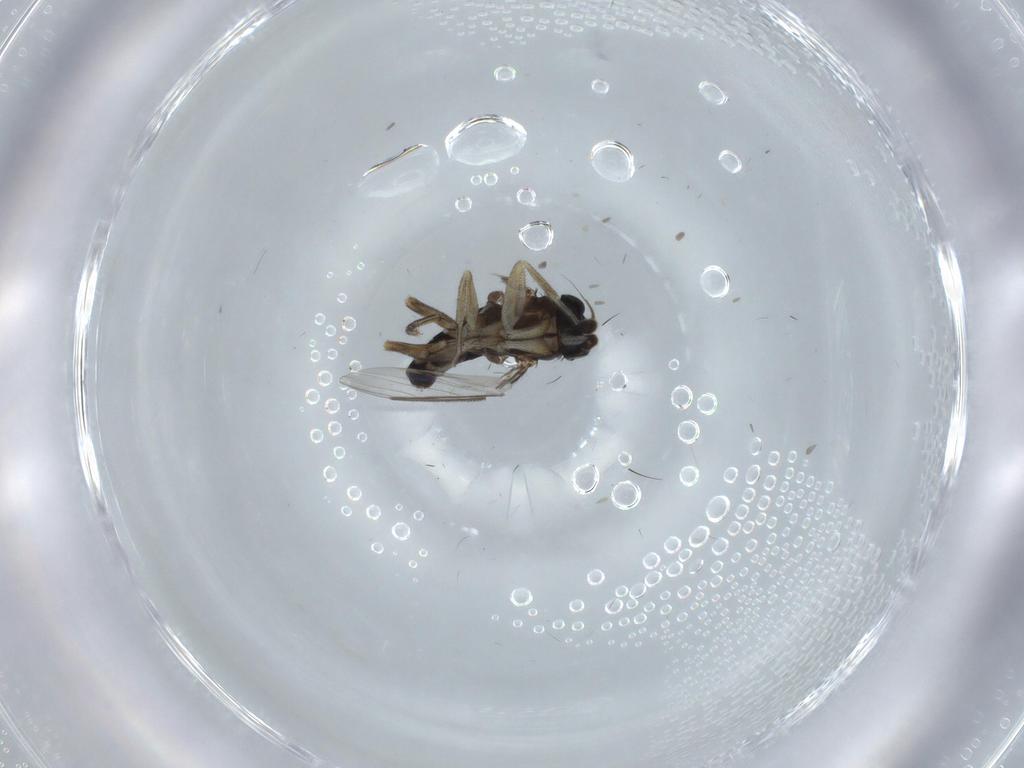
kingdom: Animalia
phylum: Arthropoda
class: Insecta
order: Diptera
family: Phoridae
